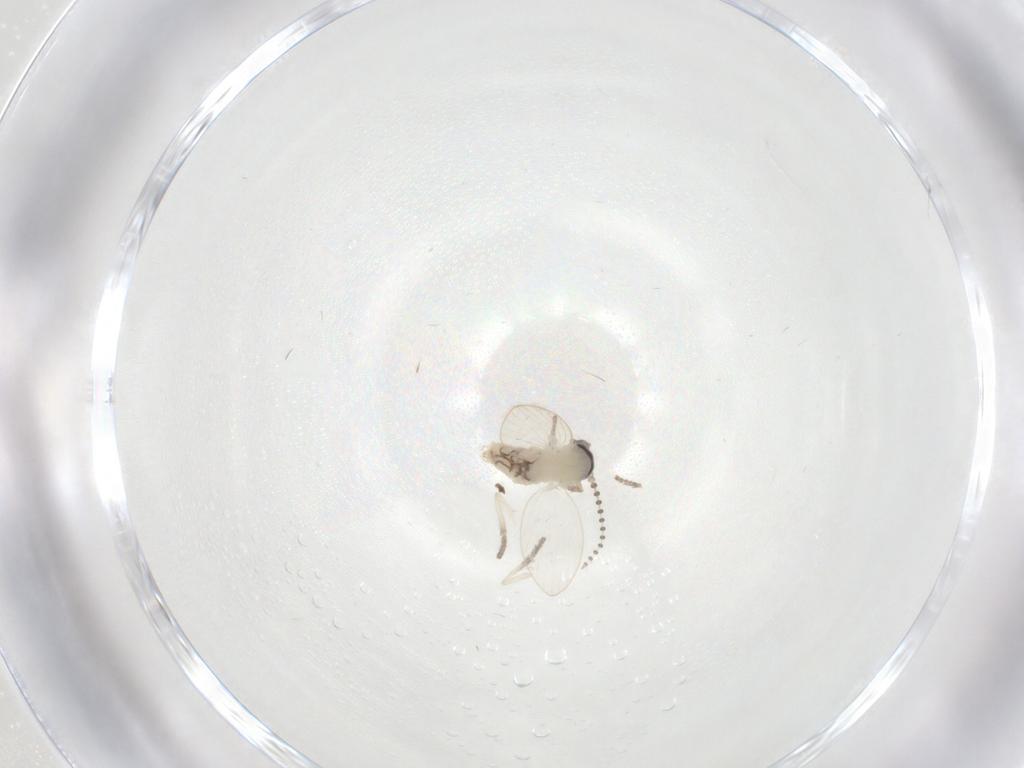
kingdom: Animalia
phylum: Arthropoda
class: Insecta
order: Diptera
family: Psychodidae
